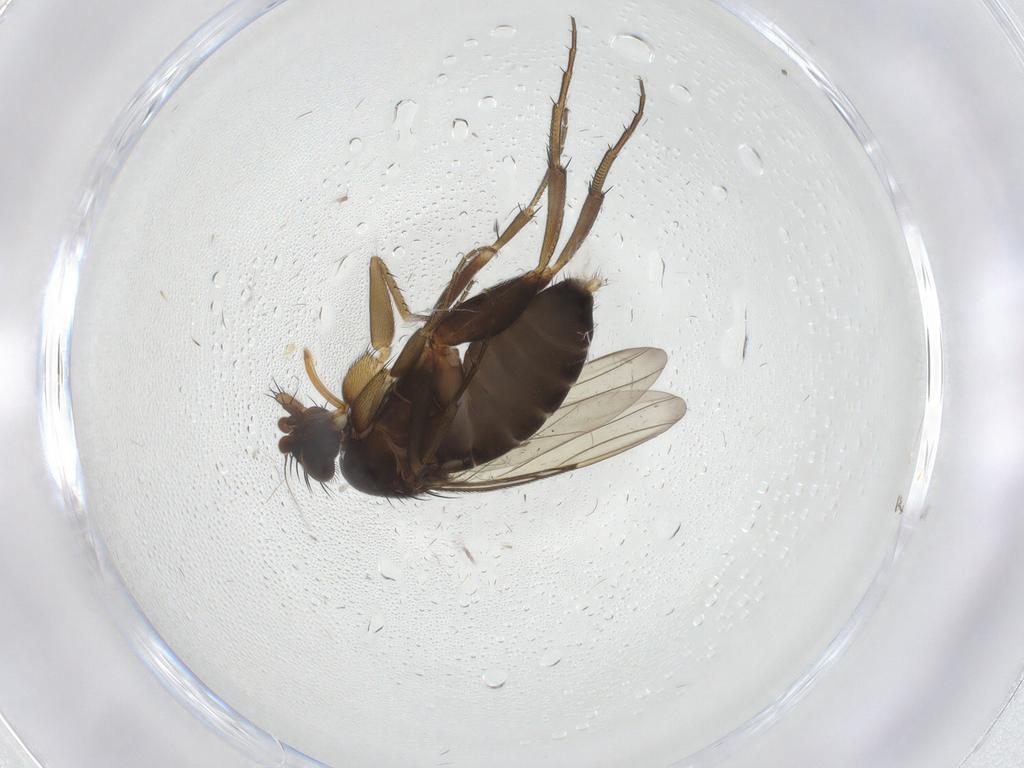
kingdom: Animalia
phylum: Arthropoda
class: Insecta
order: Diptera
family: Phoridae
